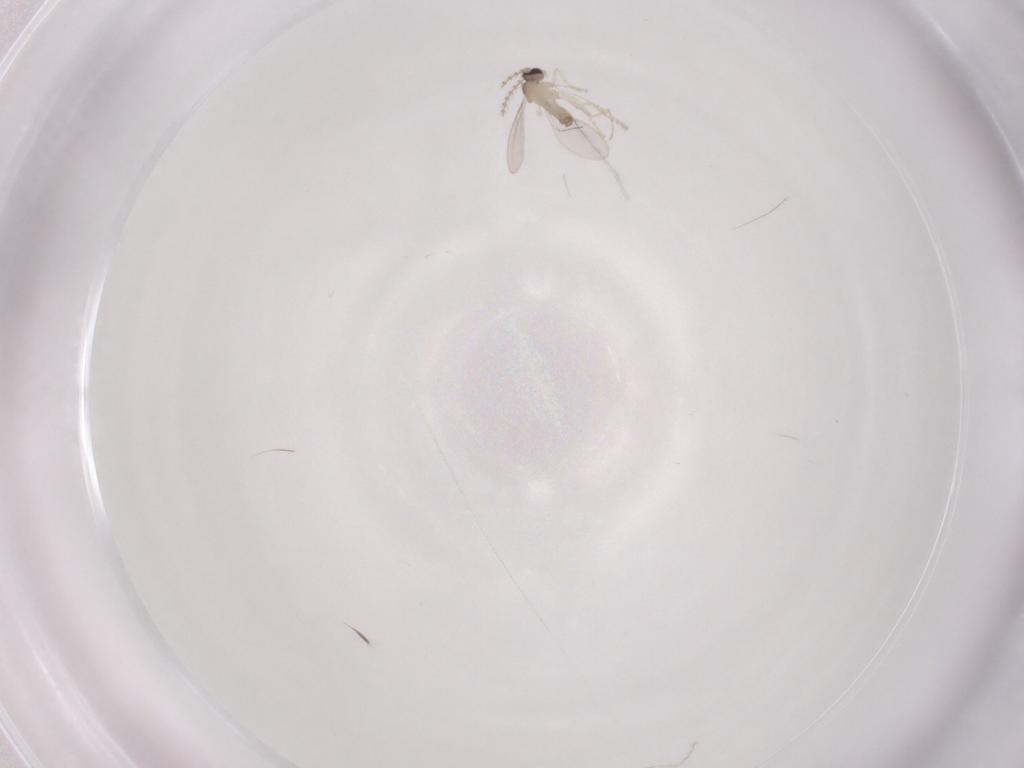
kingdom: Animalia
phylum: Arthropoda
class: Insecta
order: Diptera
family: Cecidomyiidae
